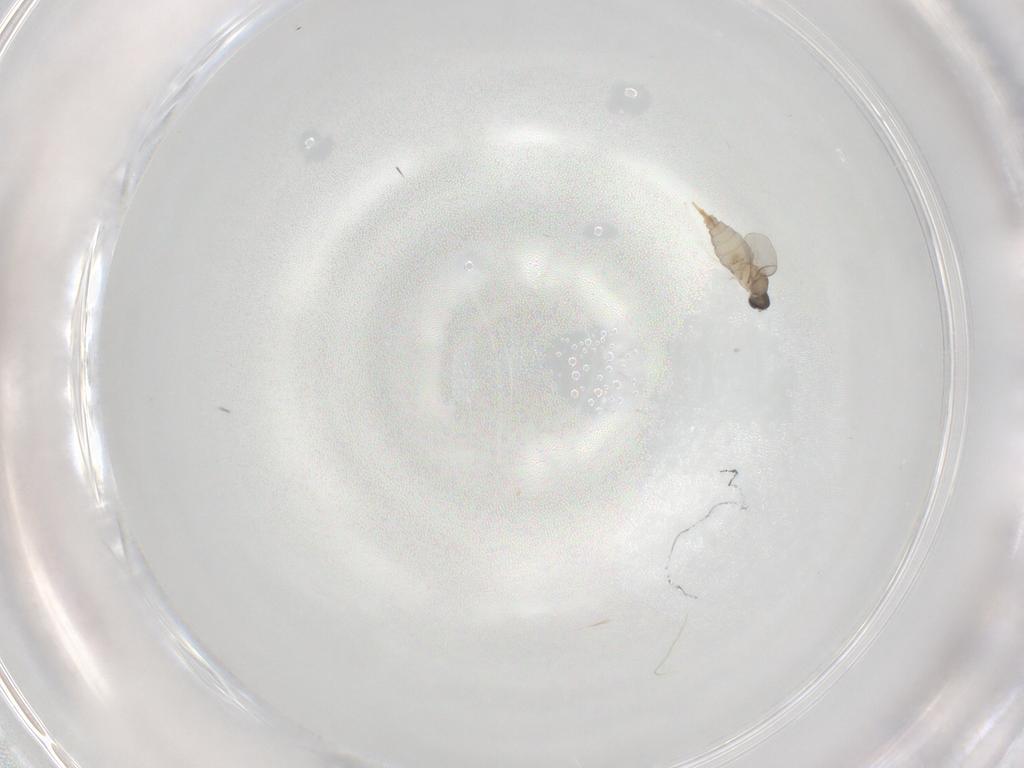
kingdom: Animalia
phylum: Arthropoda
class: Insecta
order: Diptera
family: Cecidomyiidae
